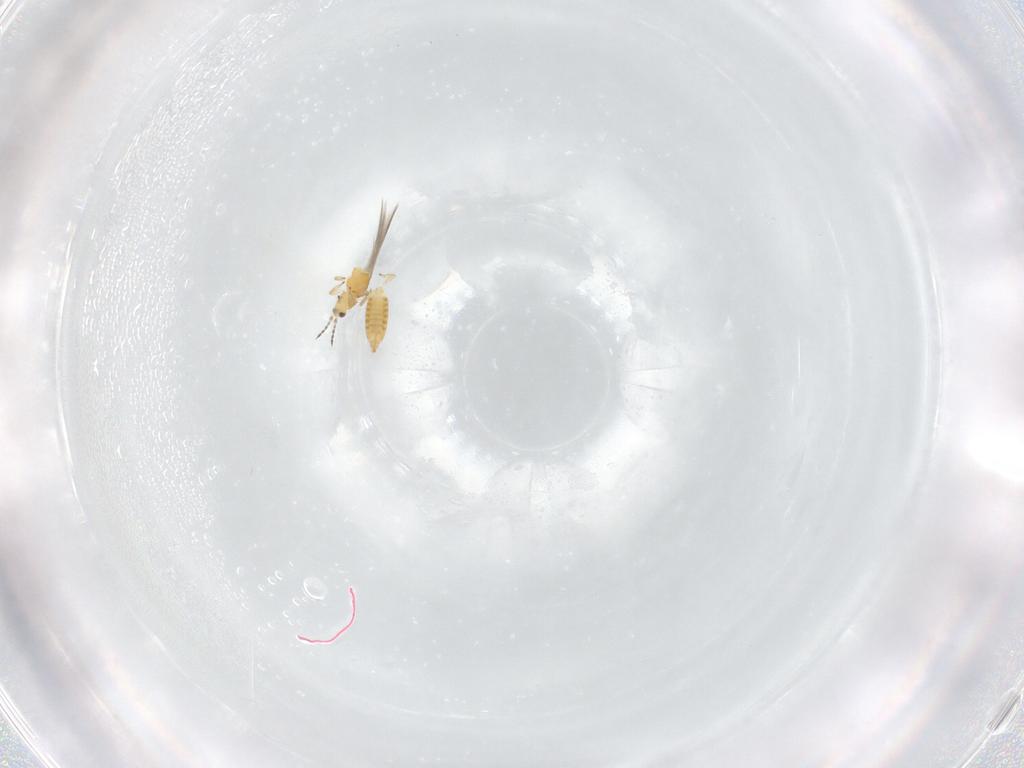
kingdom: Animalia
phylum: Arthropoda
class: Insecta
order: Thysanoptera
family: Thripidae
